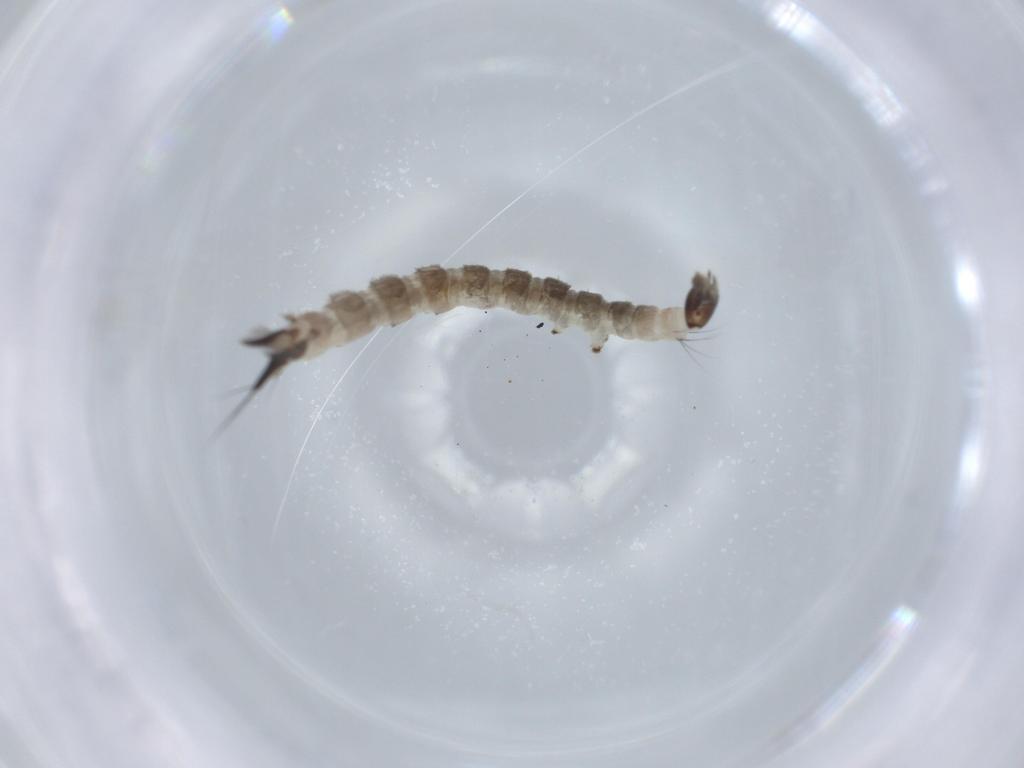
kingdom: Animalia
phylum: Arthropoda
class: Insecta
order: Diptera
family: Dixidae
